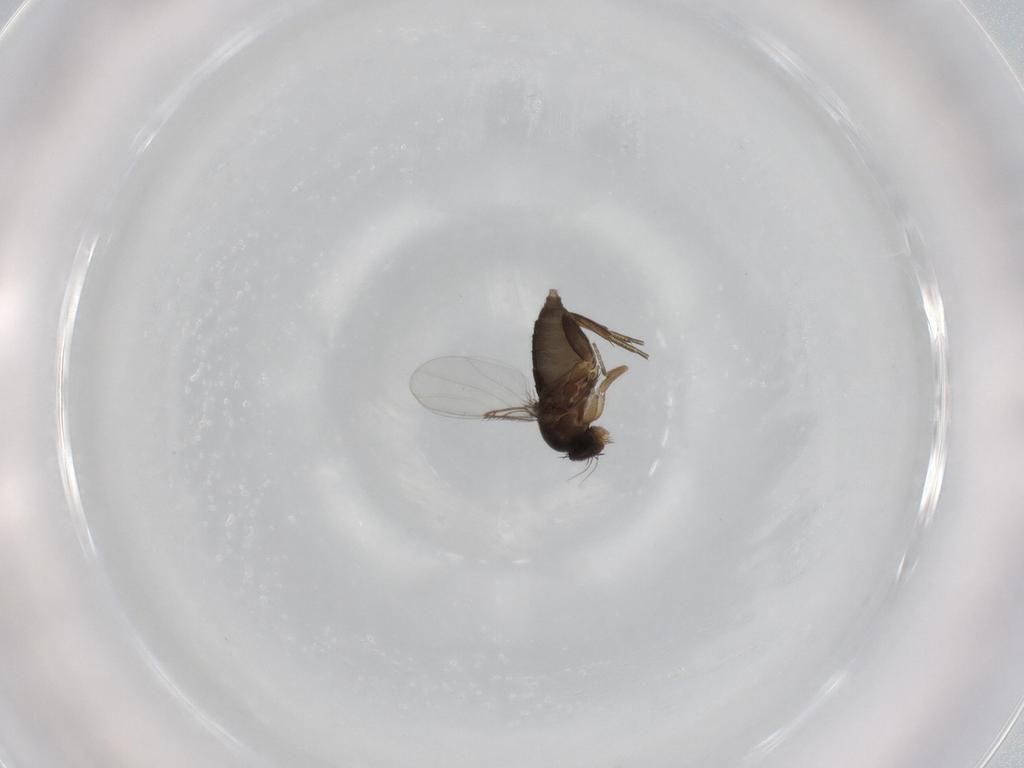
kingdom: Animalia
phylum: Arthropoda
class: Insecta
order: Diptera
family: Phoridae
